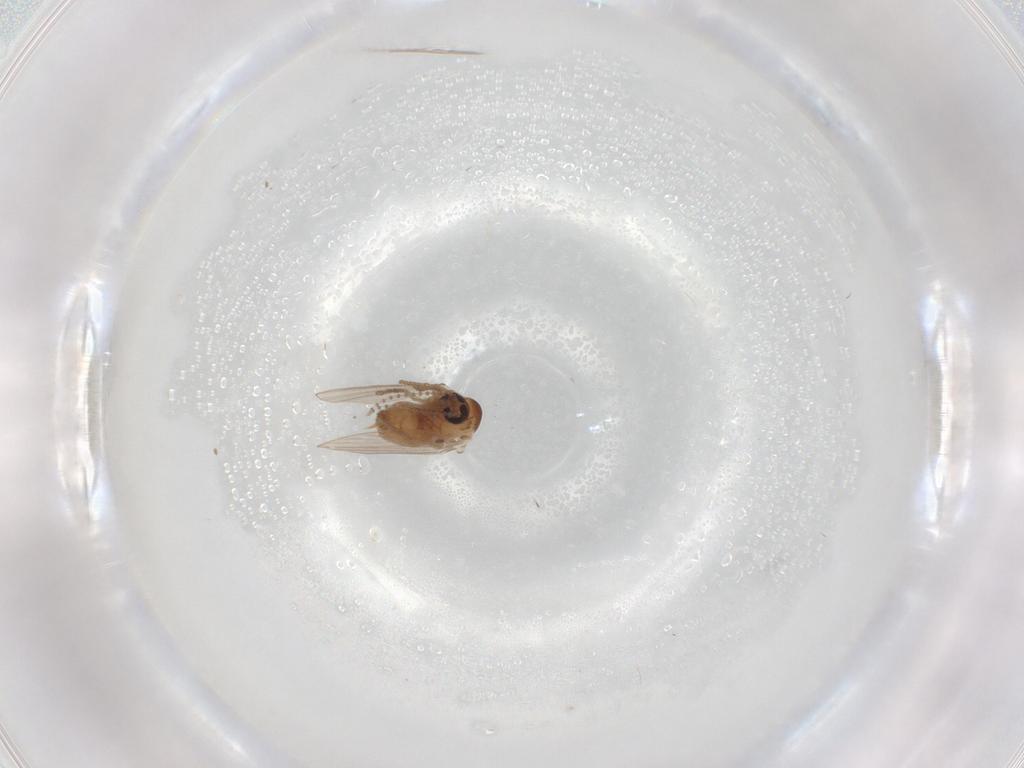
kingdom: Animalia
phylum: Arthropoda
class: Insecta
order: Diptera
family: Psychodidae
